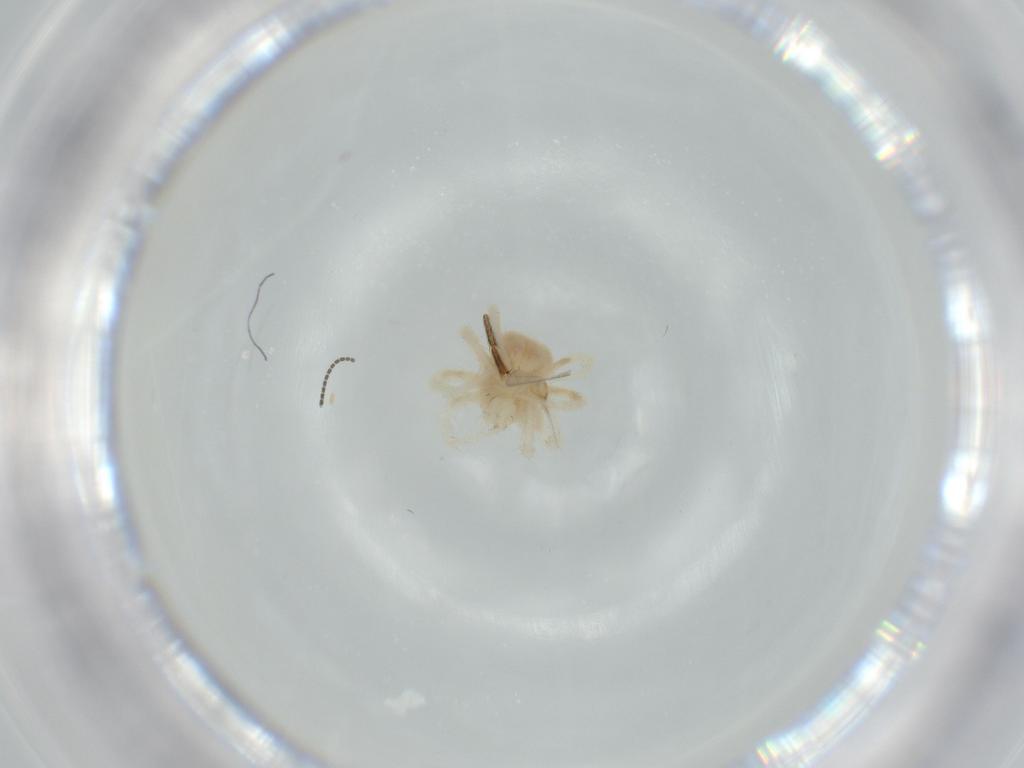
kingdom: Animalia
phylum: Arthropoda
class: Arachnida
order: Trombidiformes
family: Anystidae
